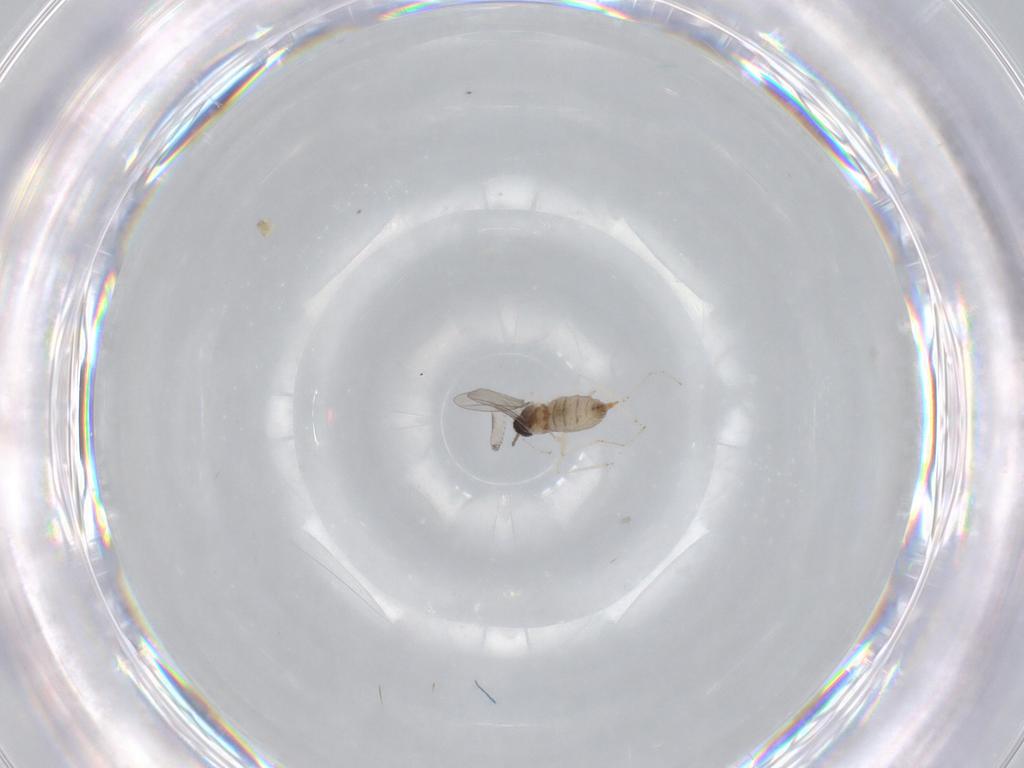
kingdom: Animalia
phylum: Arthropoda
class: Insecta
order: Diptera
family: Cecidomyiidae
